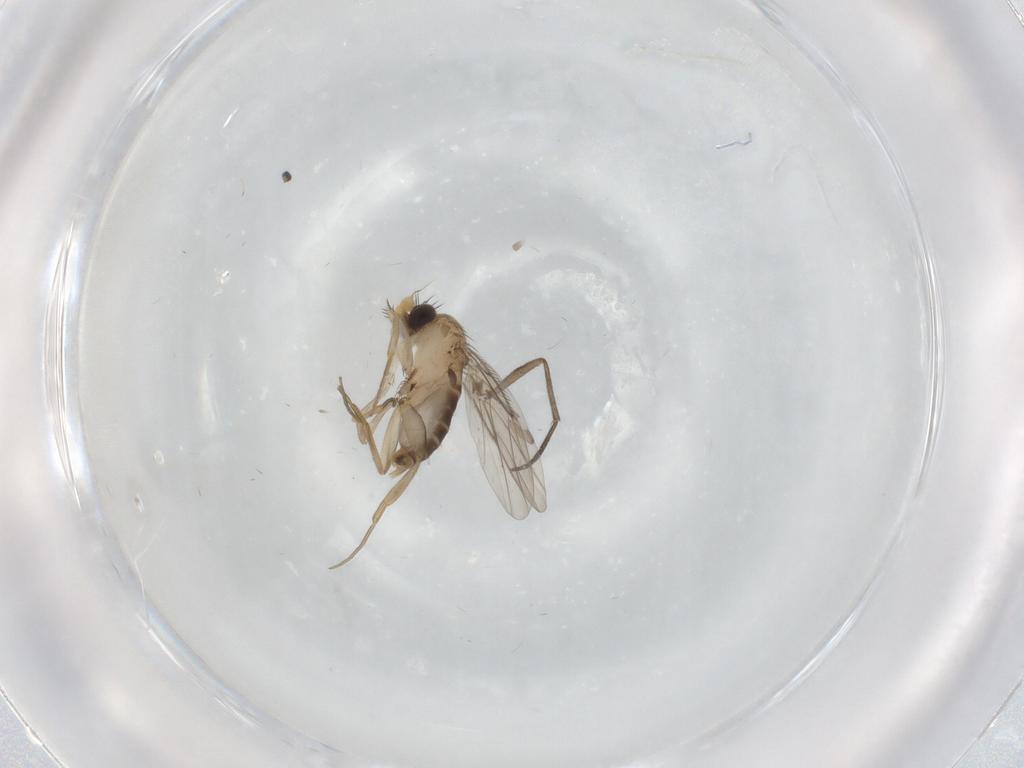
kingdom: Animalia
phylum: Arthropoda
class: Insecta
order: Diptera
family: Phoridae
